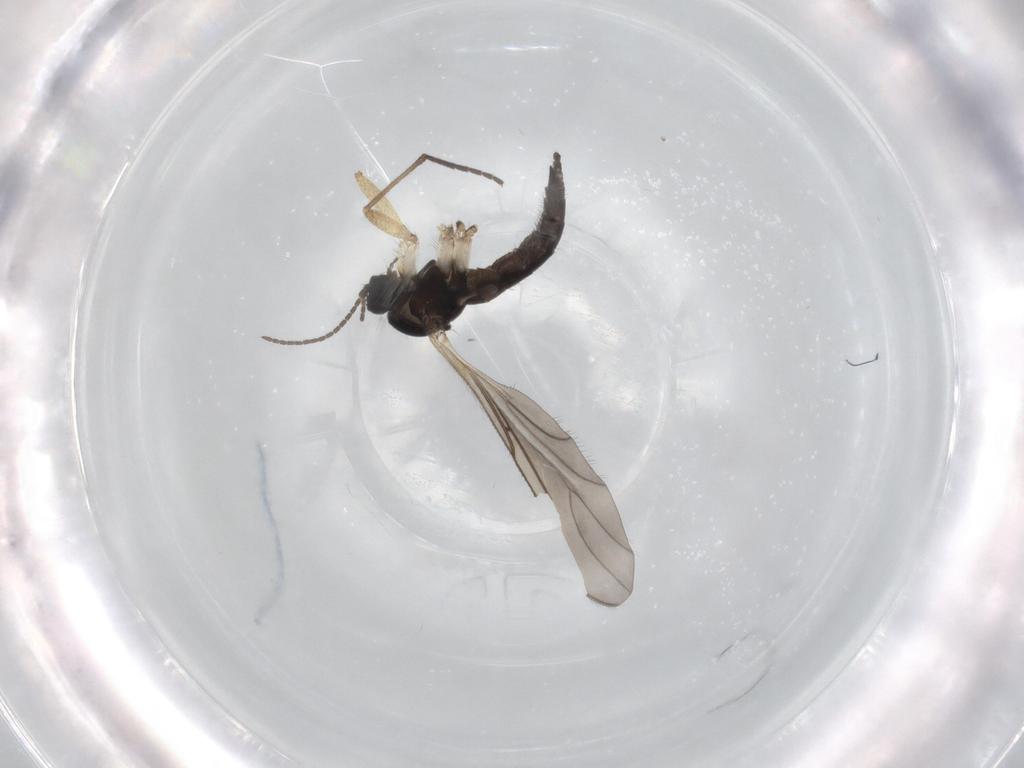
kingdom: Animalia
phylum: Arthropoda
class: Insecta
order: Diptera
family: Sciaridae
